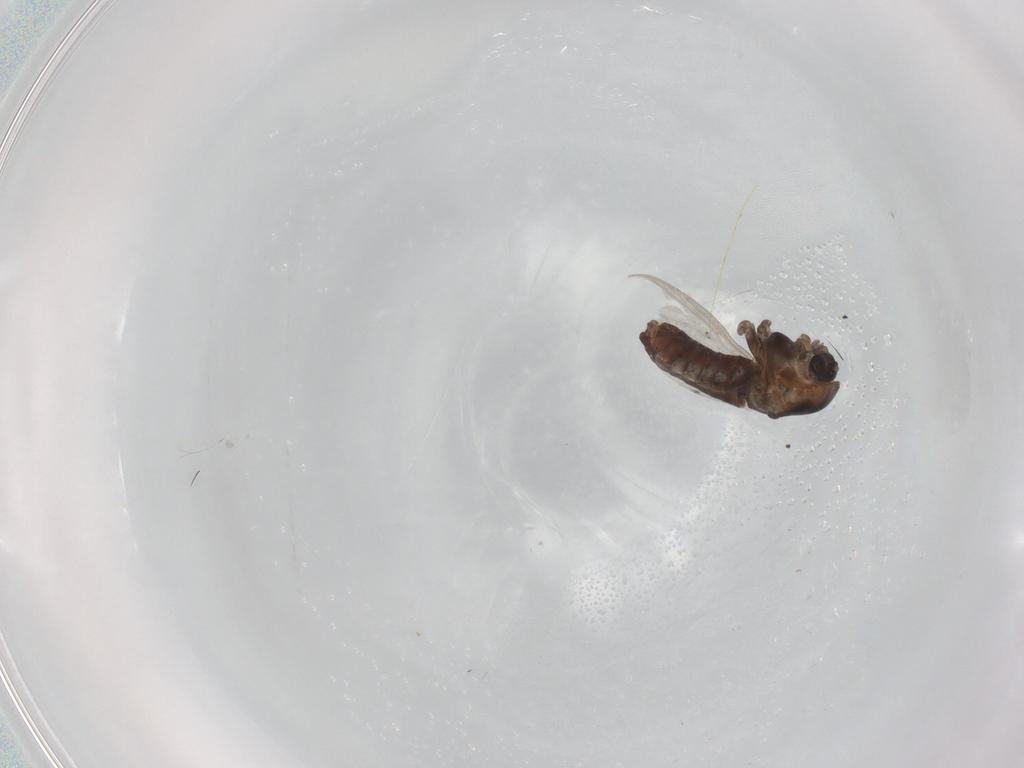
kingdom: Animalia
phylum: Arthropoda
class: Insecta
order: Diptera
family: Chironomidae
